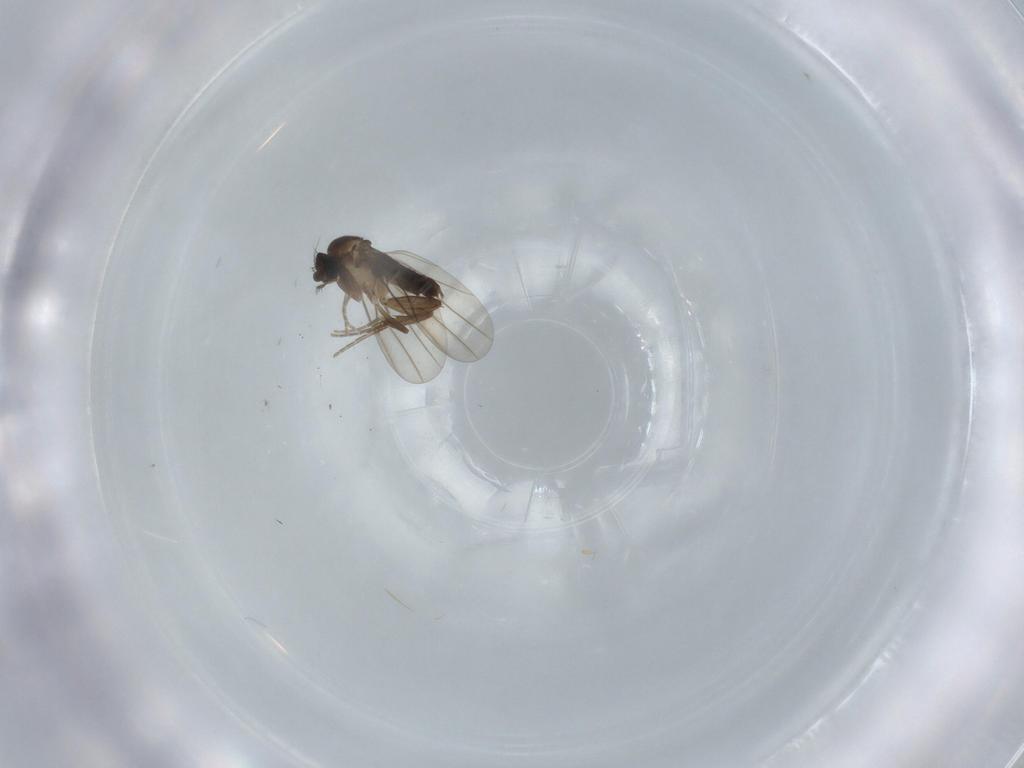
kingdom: Animalia
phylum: Arthropoda
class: Insecta
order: Diptera
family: Phoridae
